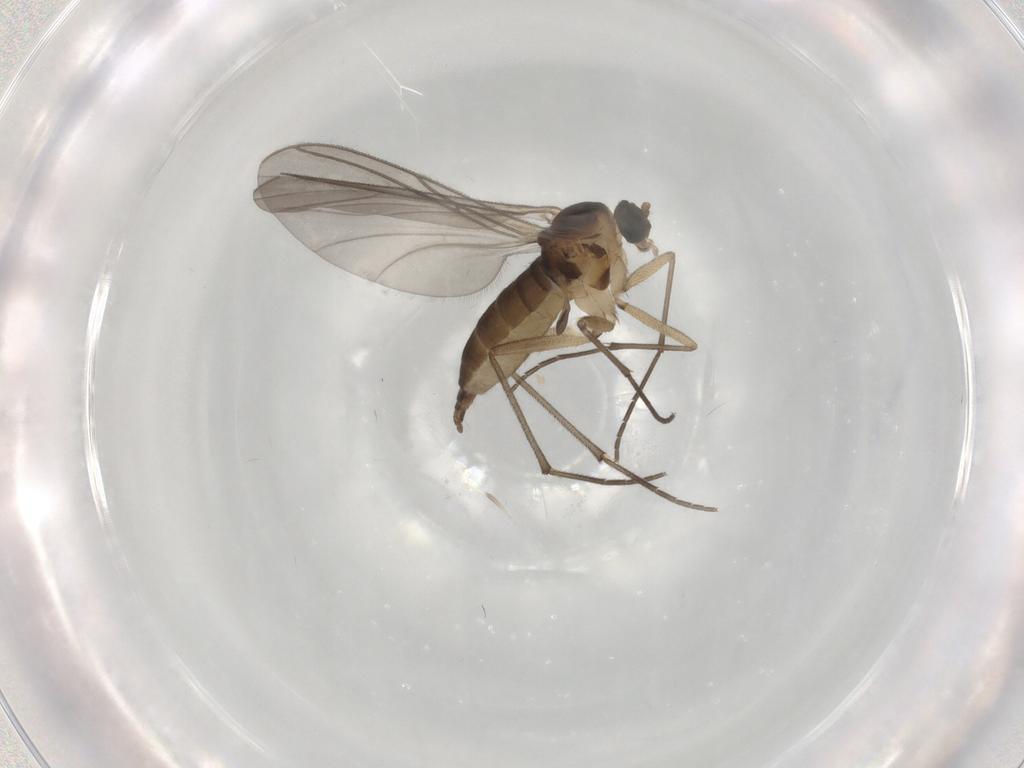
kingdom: Animalia
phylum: Arthropoda
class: Insecta
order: Diptera
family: Sciaridae
